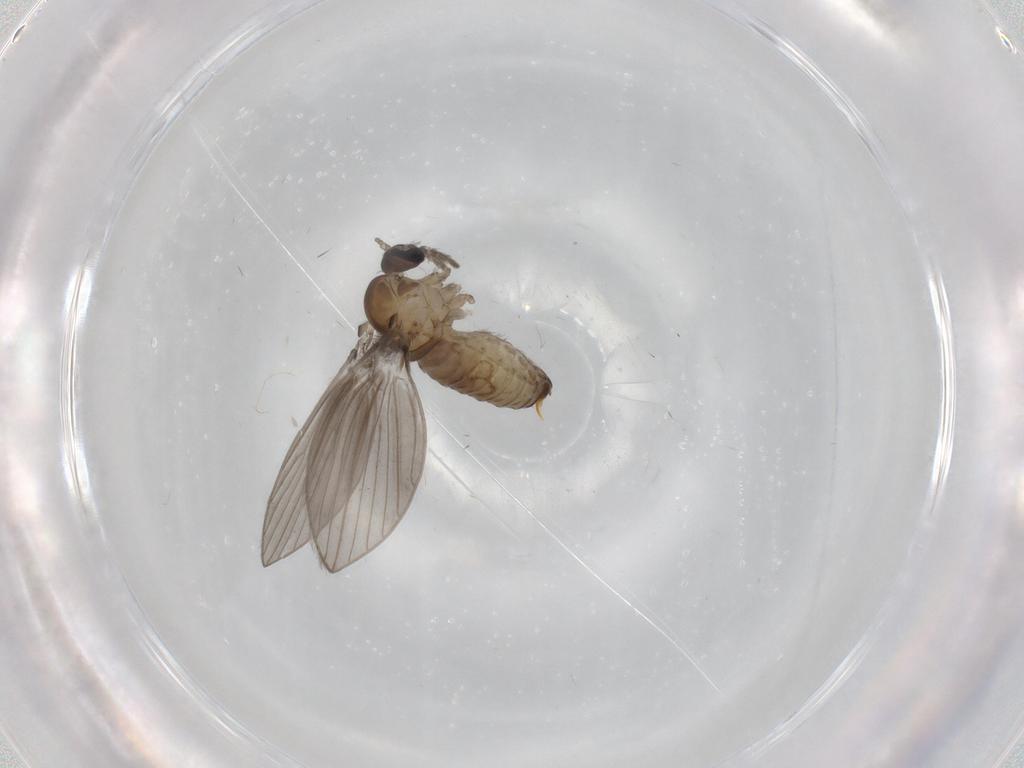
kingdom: Animalia
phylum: Arthropoda
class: Insecta
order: Diptera
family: Psychodidae
